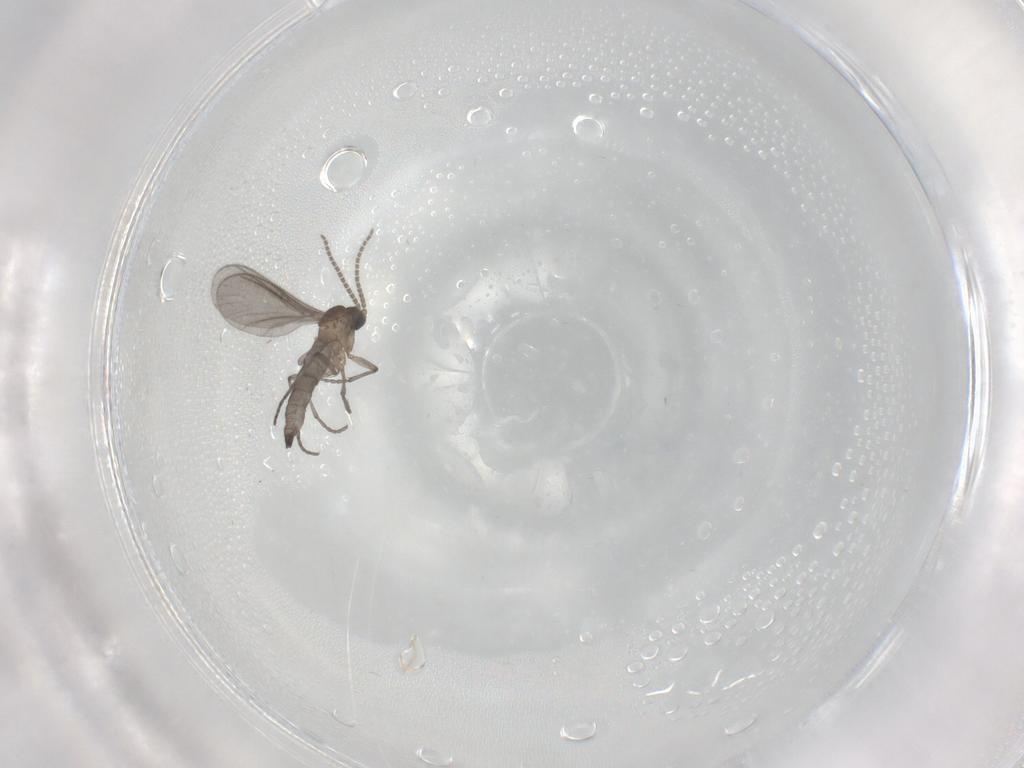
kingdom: Animalia
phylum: Arthropoda
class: Insecta
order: Diptera
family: Sciaridae
